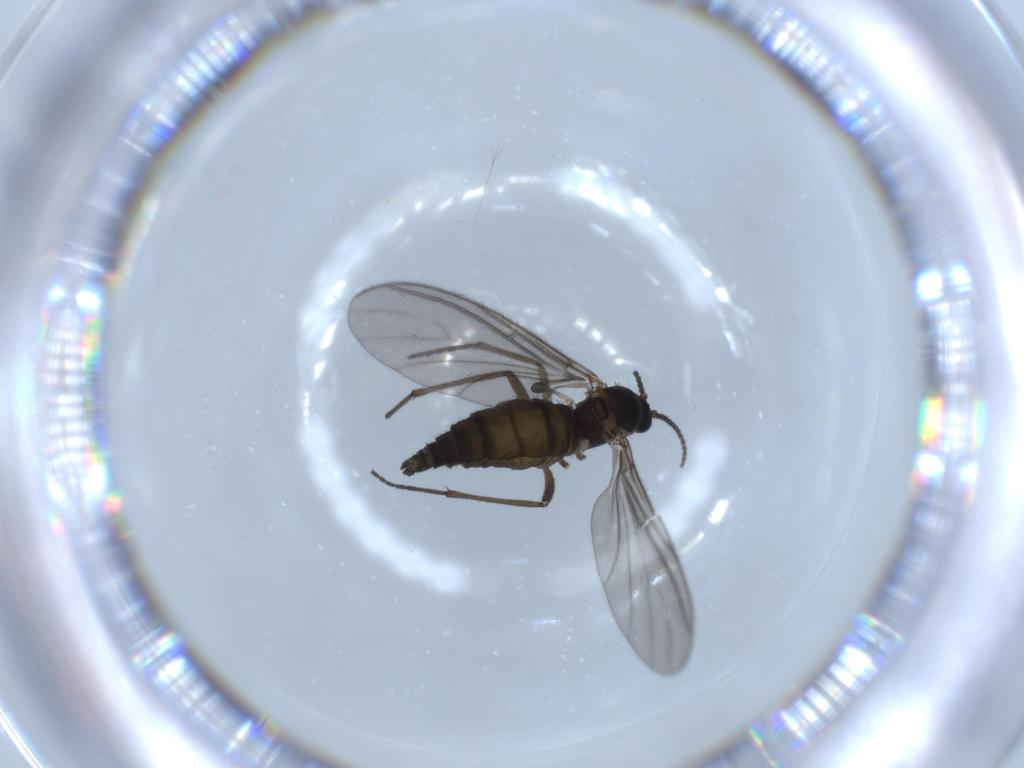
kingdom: Animalia
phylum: Arthropoda
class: Insecta
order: Diptera
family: Sciaridae
